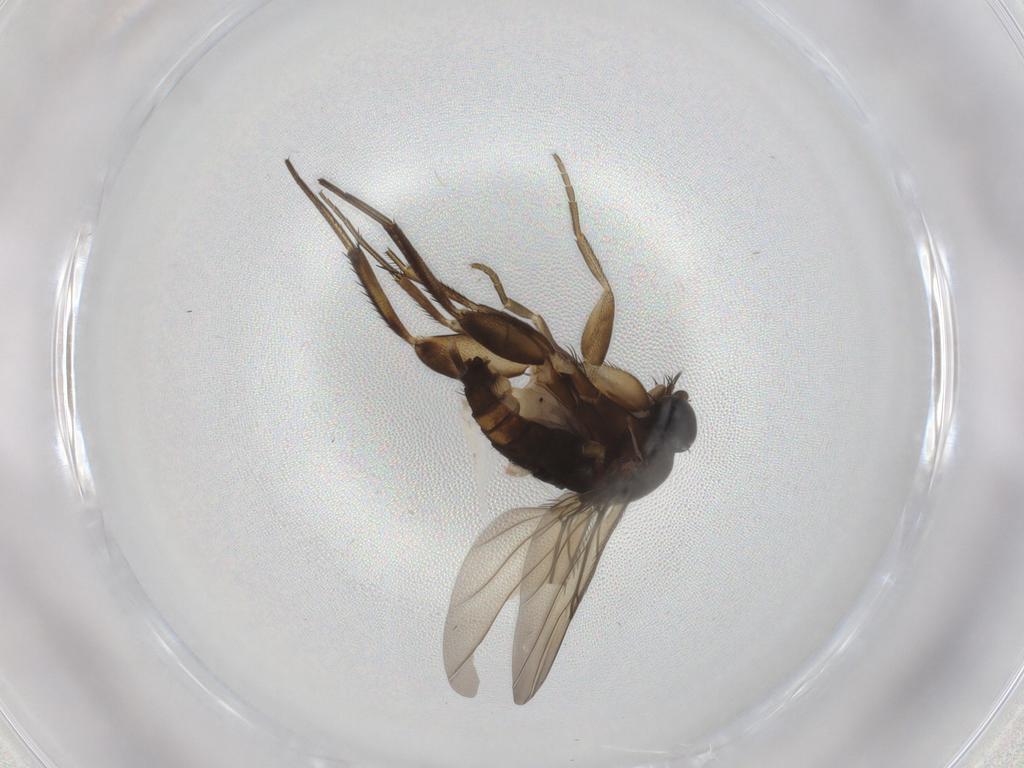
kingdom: Animalia
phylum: Arthropoda
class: Insecta
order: Diptera
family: Phoridae
